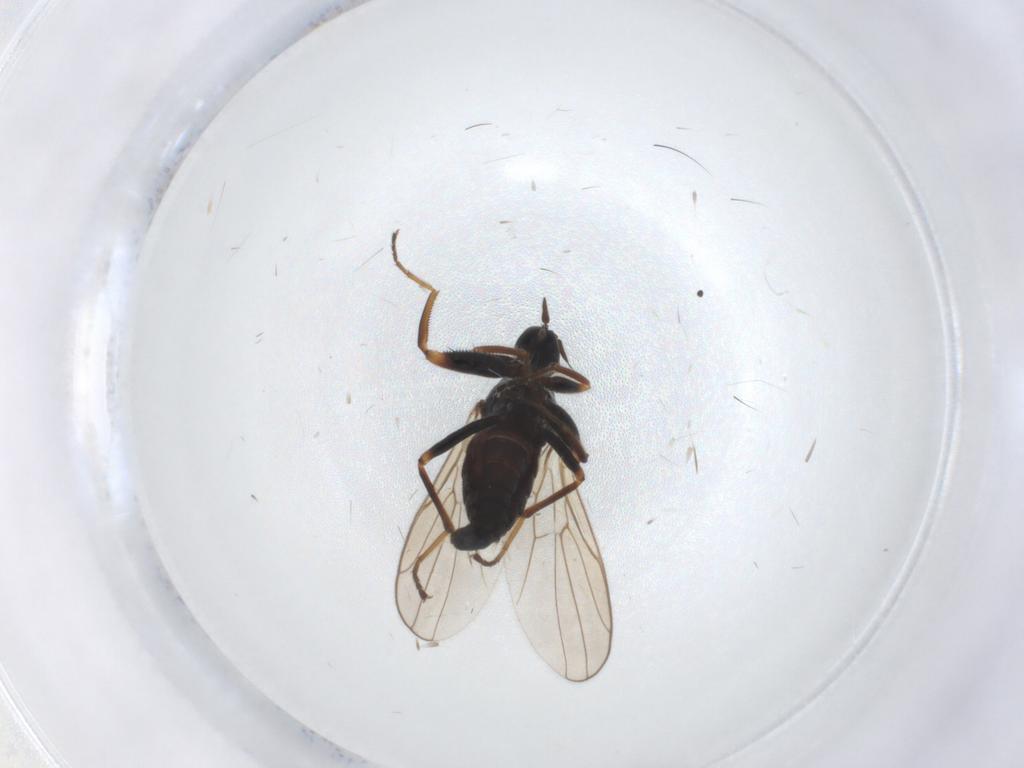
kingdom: Animalia
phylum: Arthropoda
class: Insecta
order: Diptera
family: Chironomidae
